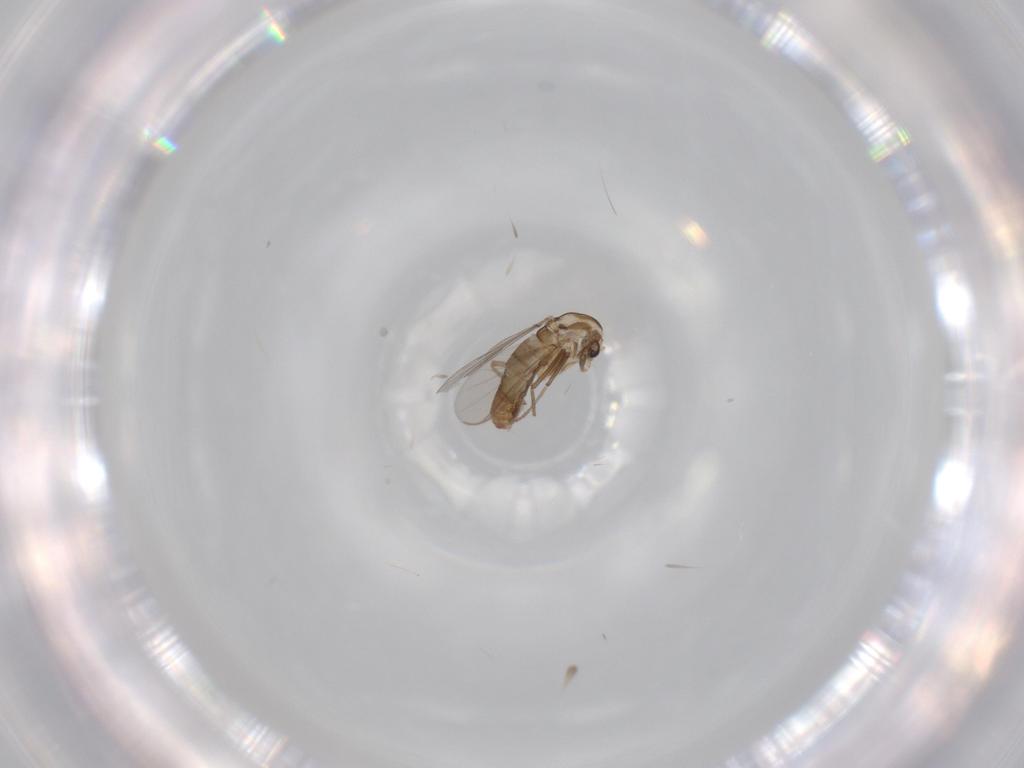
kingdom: Animalia
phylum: Arthropoda
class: Insecta
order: Diptera
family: Chironomidae
